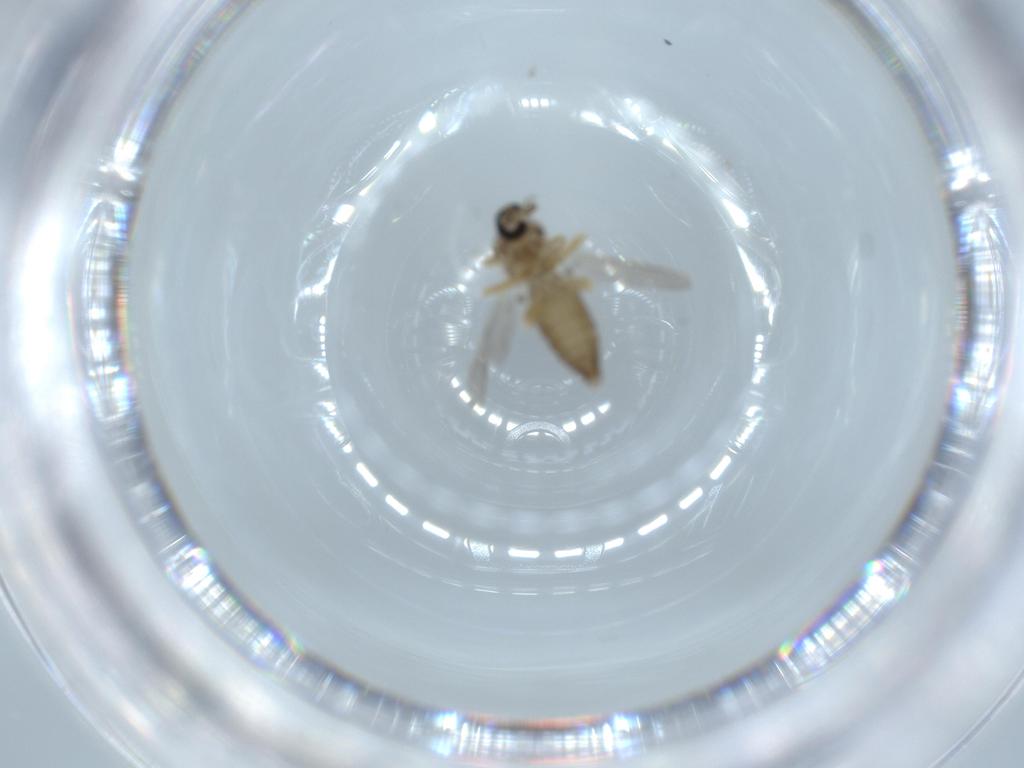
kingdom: Animalia
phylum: Arthropoda
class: Insecta
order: Diptera
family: Ceratopogonidae
